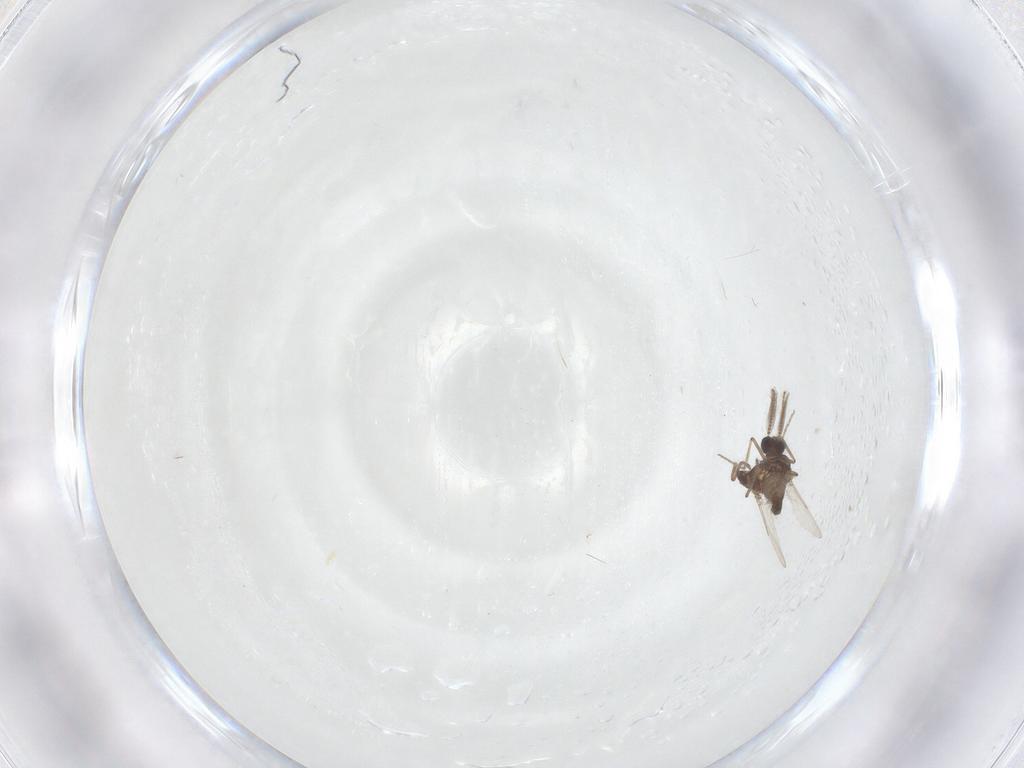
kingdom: Animalia
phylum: Arthropoda
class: Insecta
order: Diptera
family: Ceratopogonidae
